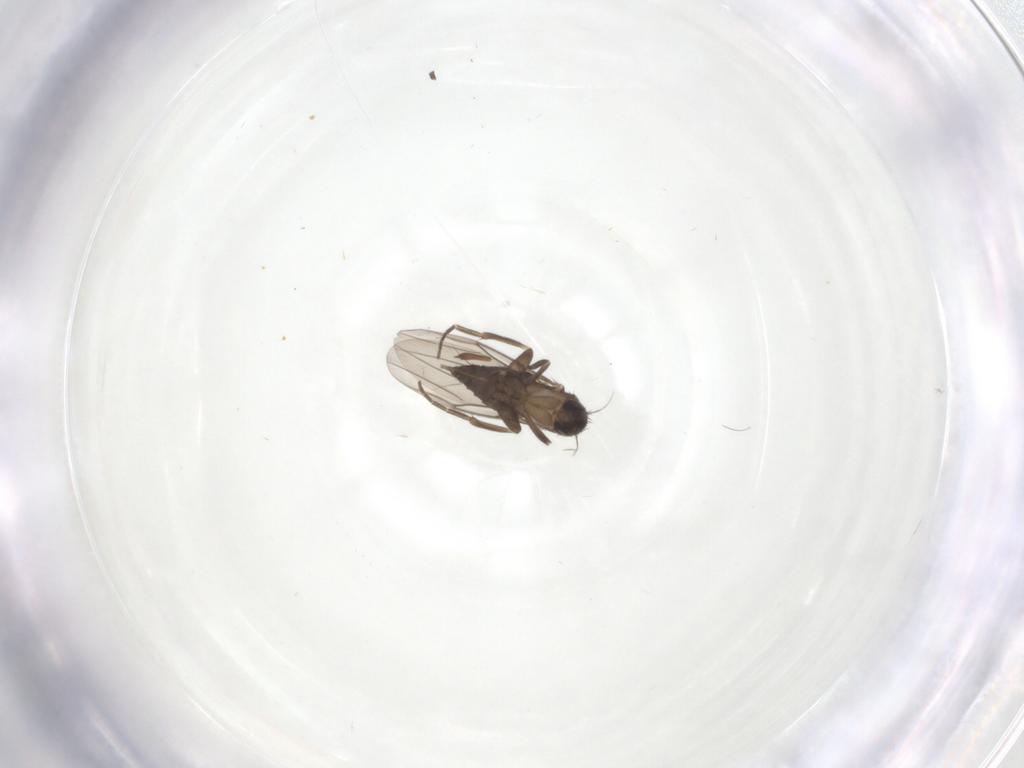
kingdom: Animalia
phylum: Arthropoda
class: Insecta
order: Diptera
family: Phoridae
